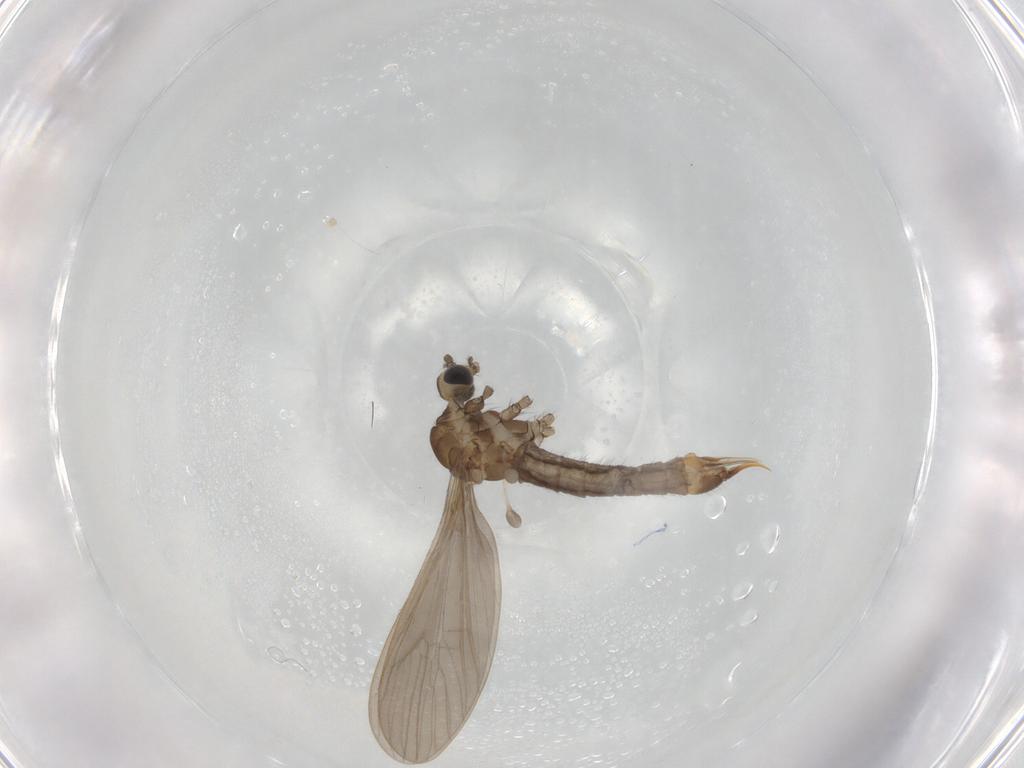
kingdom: Animalia
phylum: Arthropoda
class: Insecta
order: Diptera
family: Limoniidae
